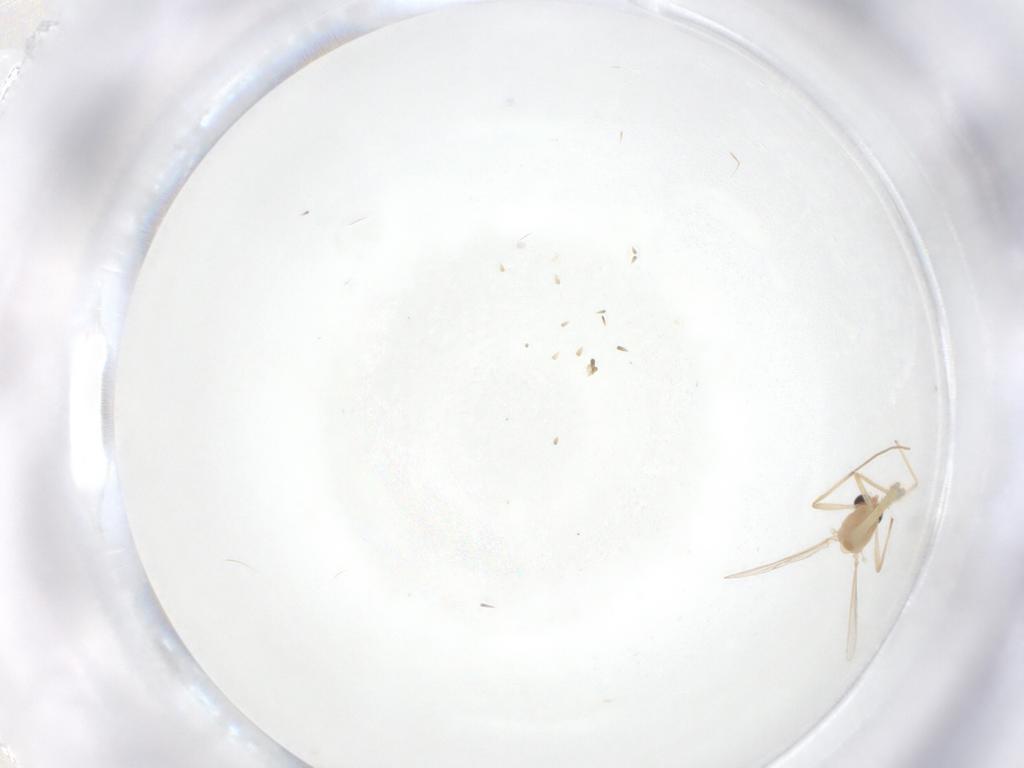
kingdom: Animalia
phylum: Arthropoda
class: Insecta
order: Diptera
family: Chironomidae
